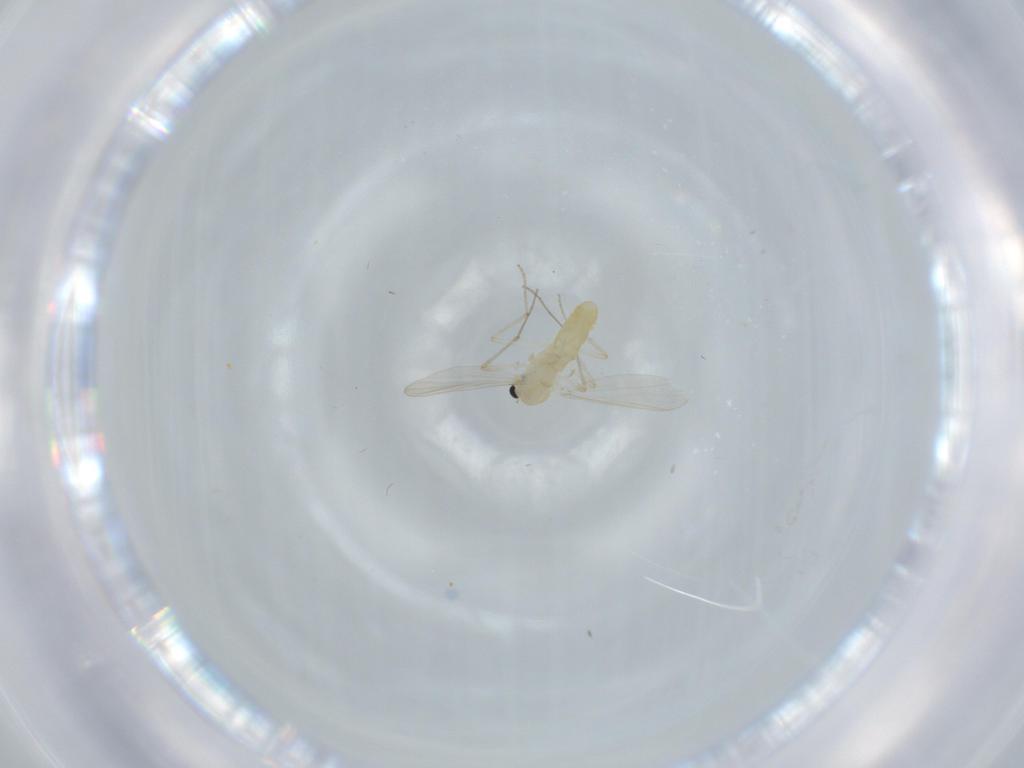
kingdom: Animalia
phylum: Arthropoda
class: Insecta
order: Diptera
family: Chironomidae
